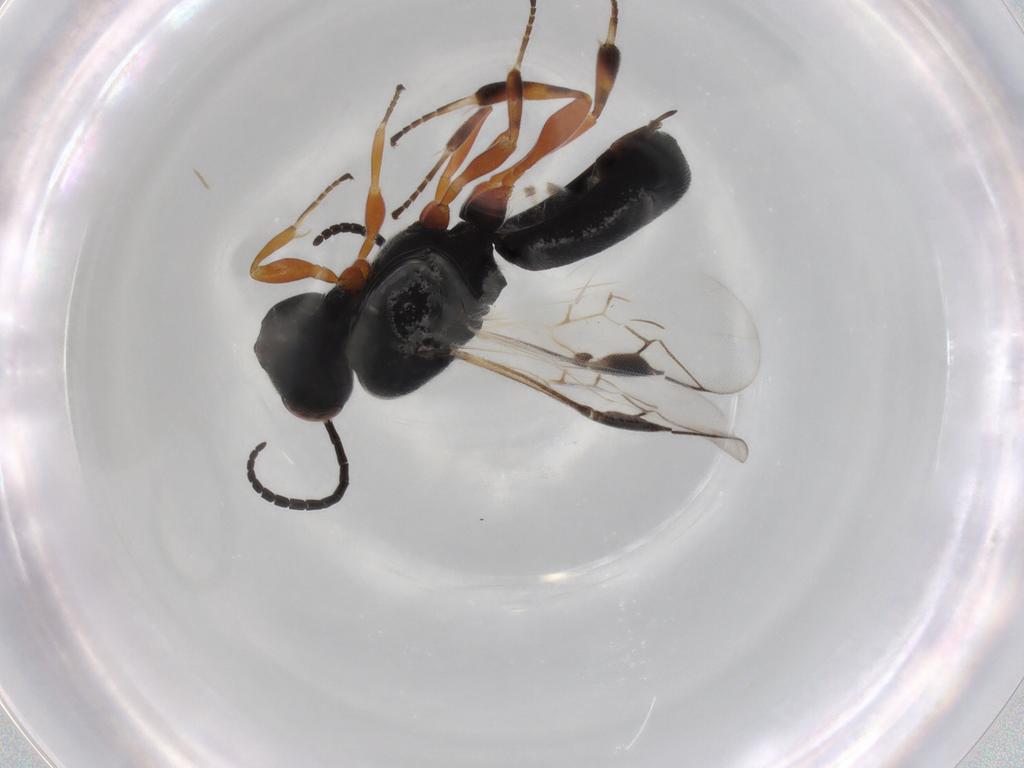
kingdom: Animalia
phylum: Arthropoda
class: Insecta
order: Hymenoptera
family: Braconidae
